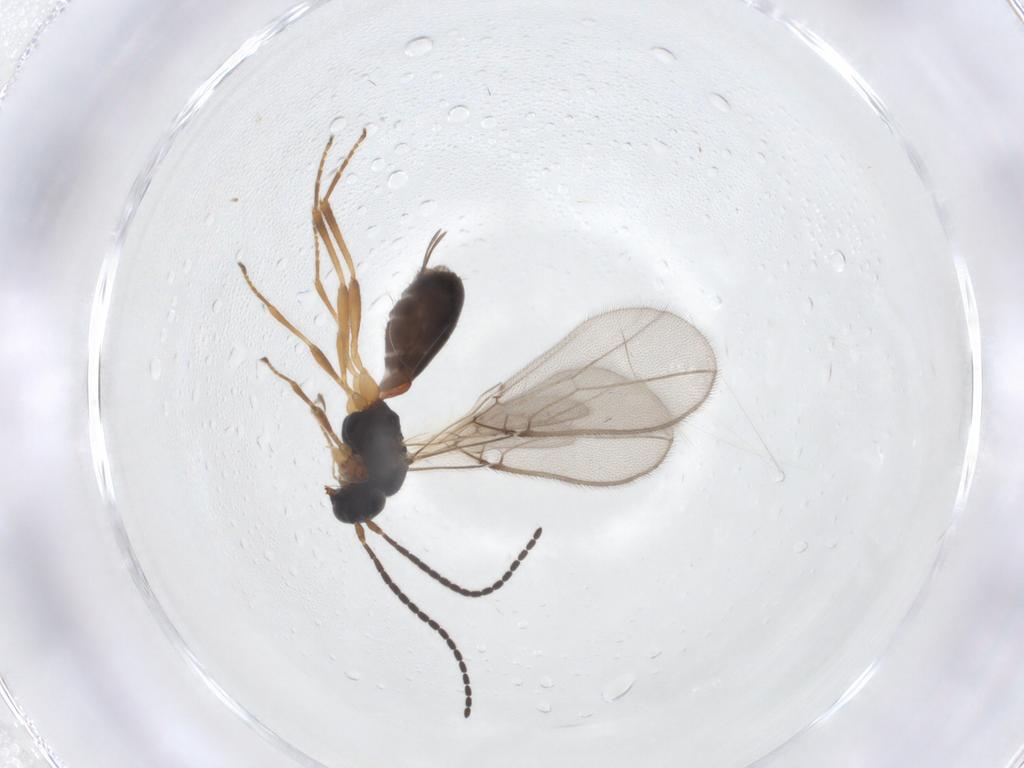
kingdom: Animalia
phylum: Arthropoda
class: Insecta
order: Hymenoptera
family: Braconidae
